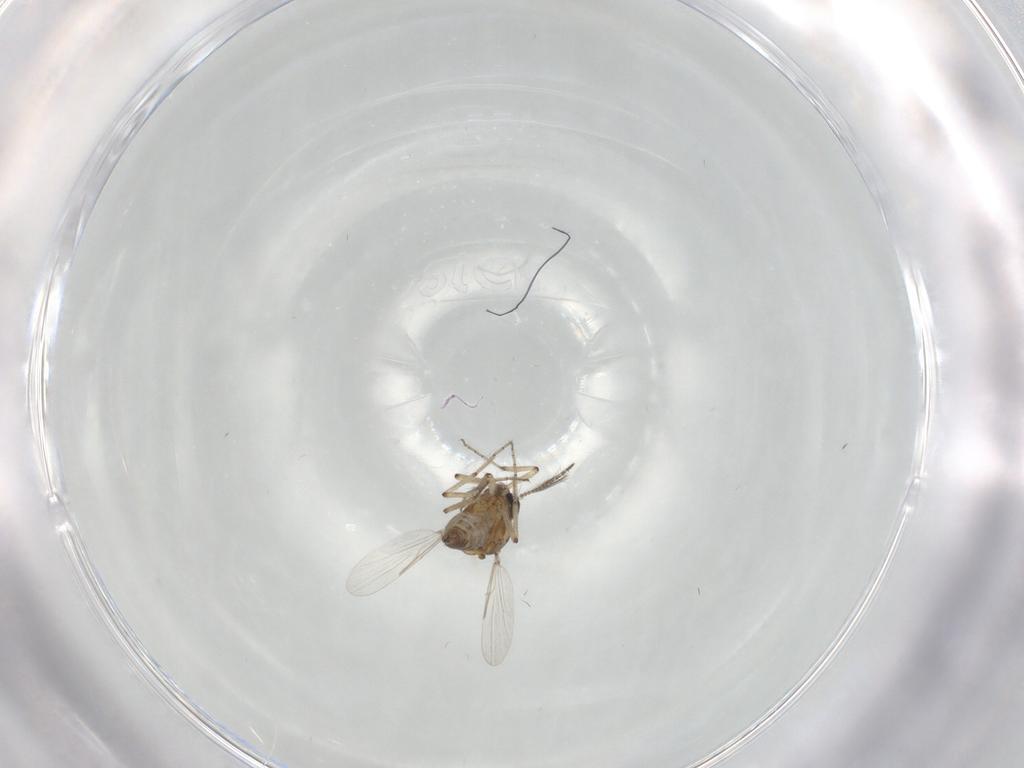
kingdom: Animalia
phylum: Arthropoda
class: Insecta
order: Diptera
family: Ceratopogonidae
